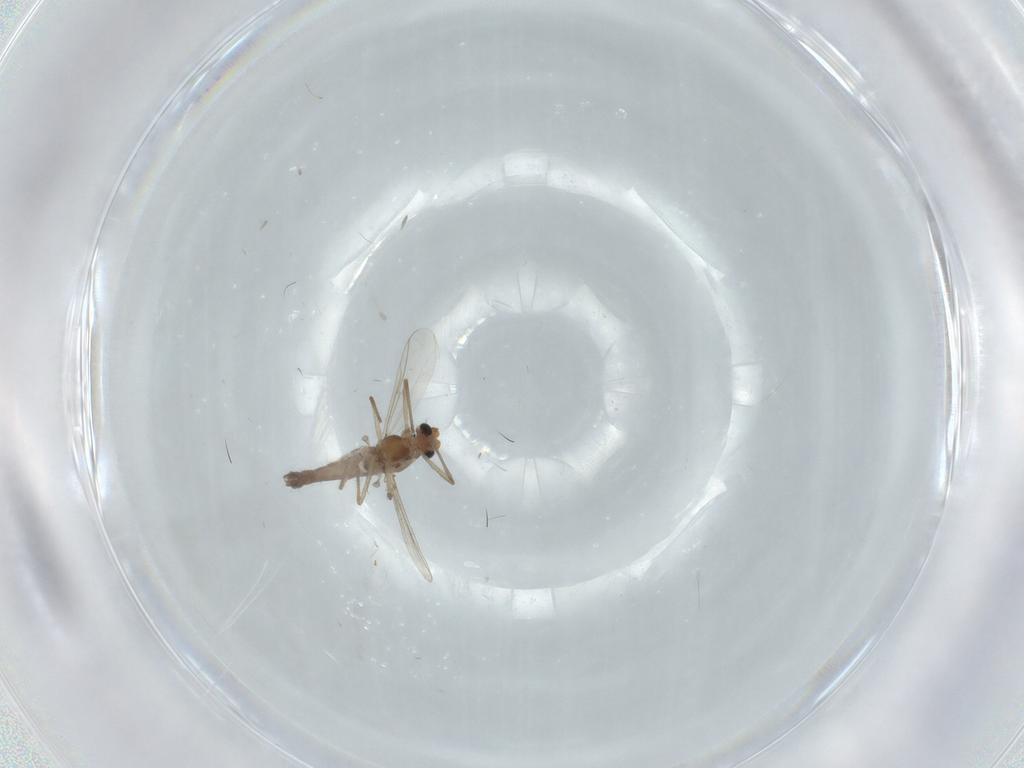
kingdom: Animalia
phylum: Arthropoda
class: Insecta
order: Diptera
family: Chironomidae
